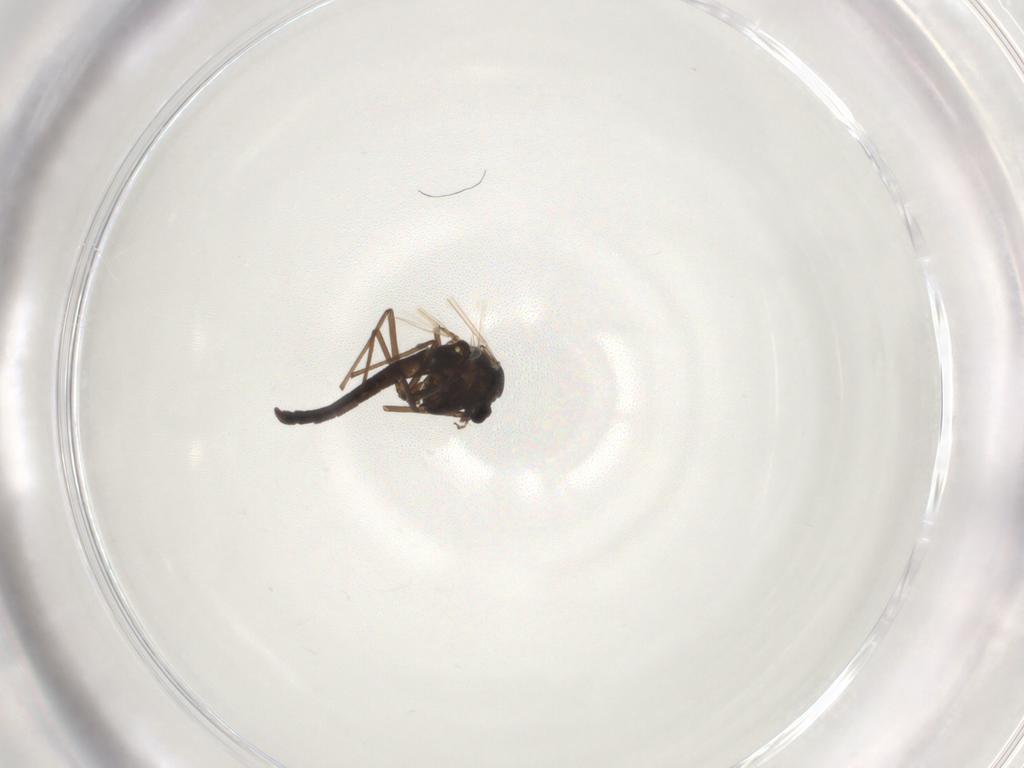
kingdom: Animalia
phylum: Arthropoda
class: Insecta
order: Diptera
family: Chironomidae
